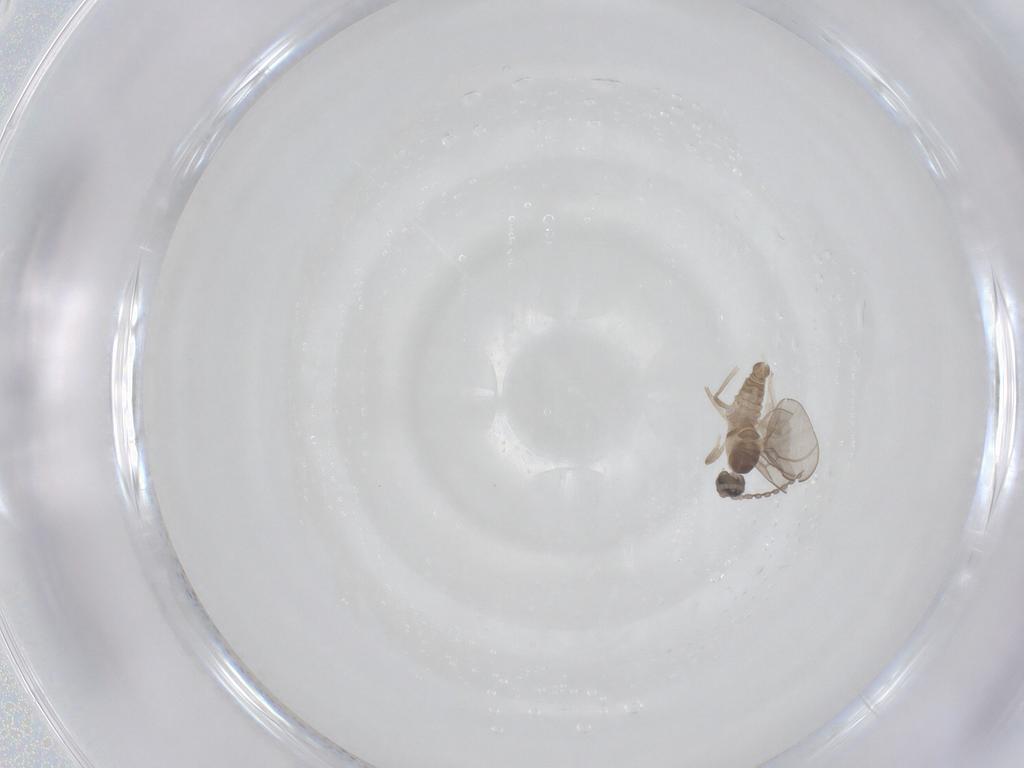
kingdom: Animalia
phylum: Arthropoda
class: Insecta
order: Diptera
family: Cecidomyiidae
